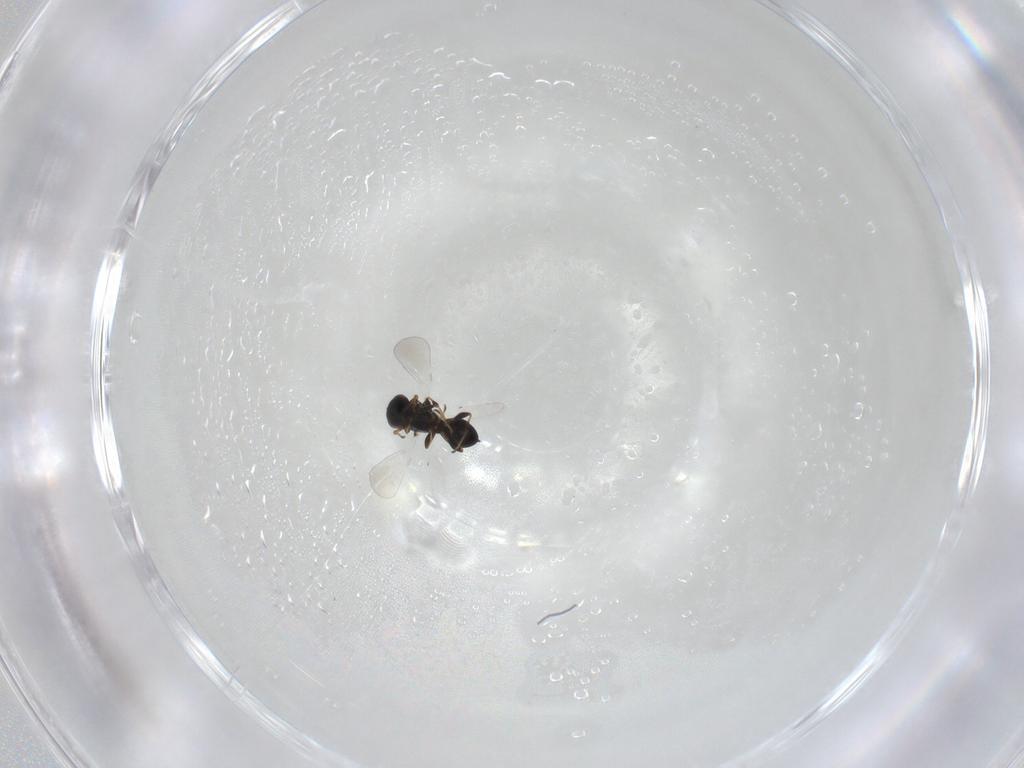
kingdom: Animalia
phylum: Arthropoda
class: Insecta
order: Hymenoptera
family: Platygastridae
